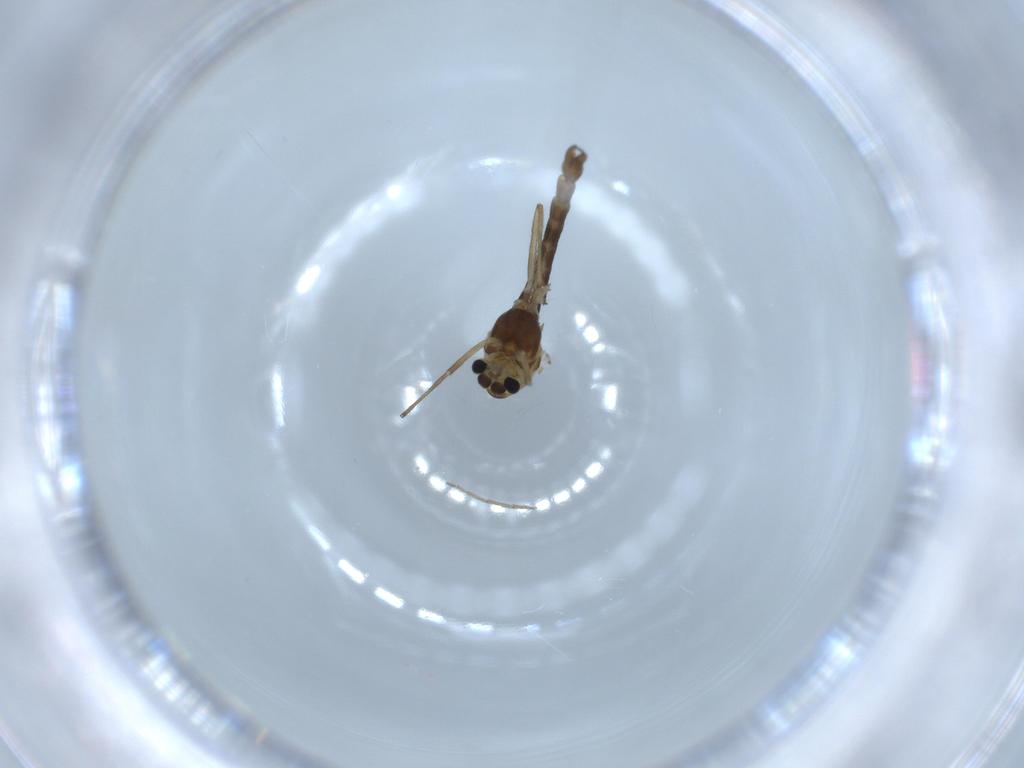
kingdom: Animalia
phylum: Arthropoda
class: Insecta
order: Diptera
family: Chironomidae
